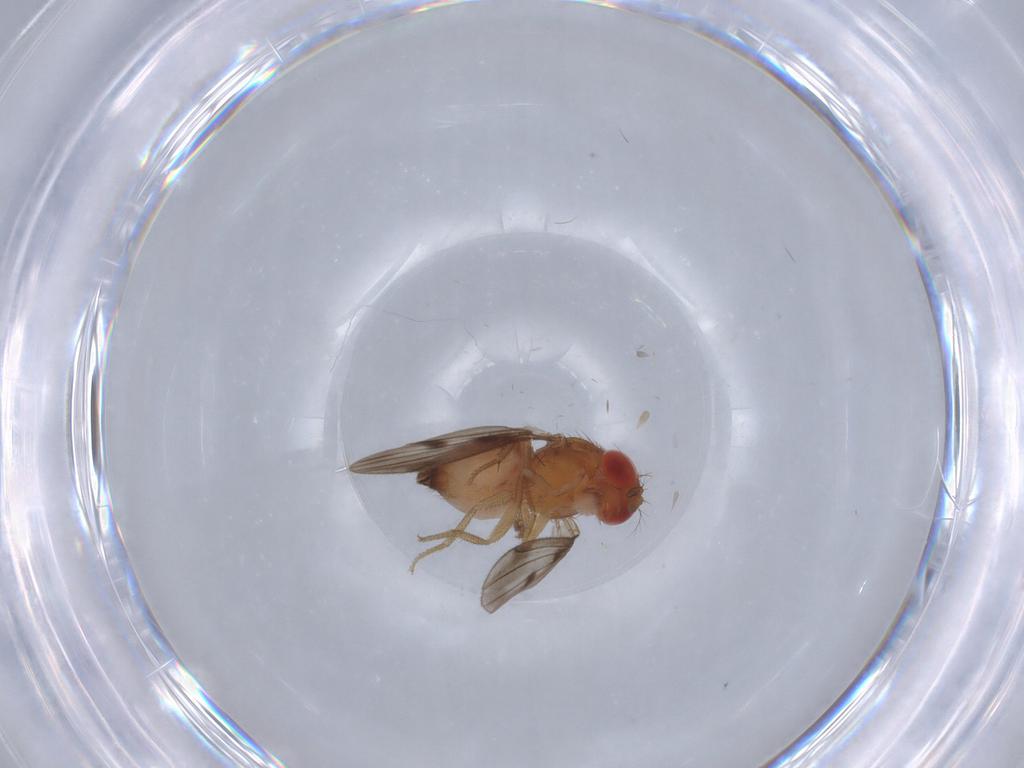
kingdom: Animalia
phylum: Arthropoda
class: Insecta
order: Diptera
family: Drosophilidae
